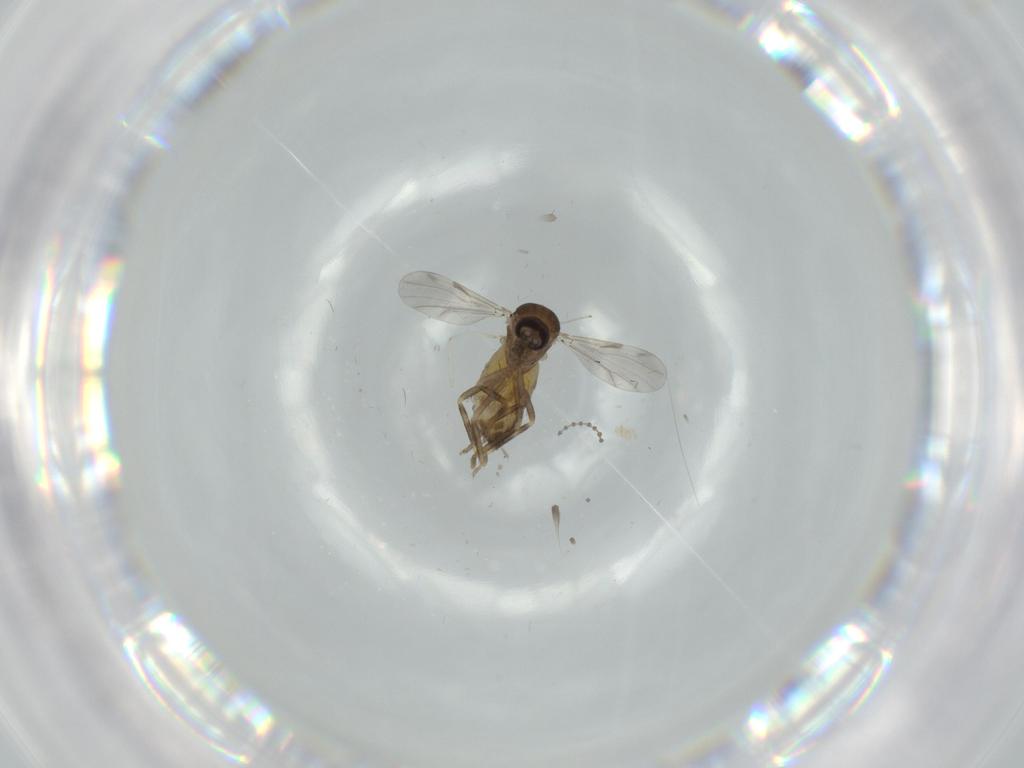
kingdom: Animalia
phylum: Arthropoda
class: Insecta
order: Diptera
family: Ceratopogonidae
